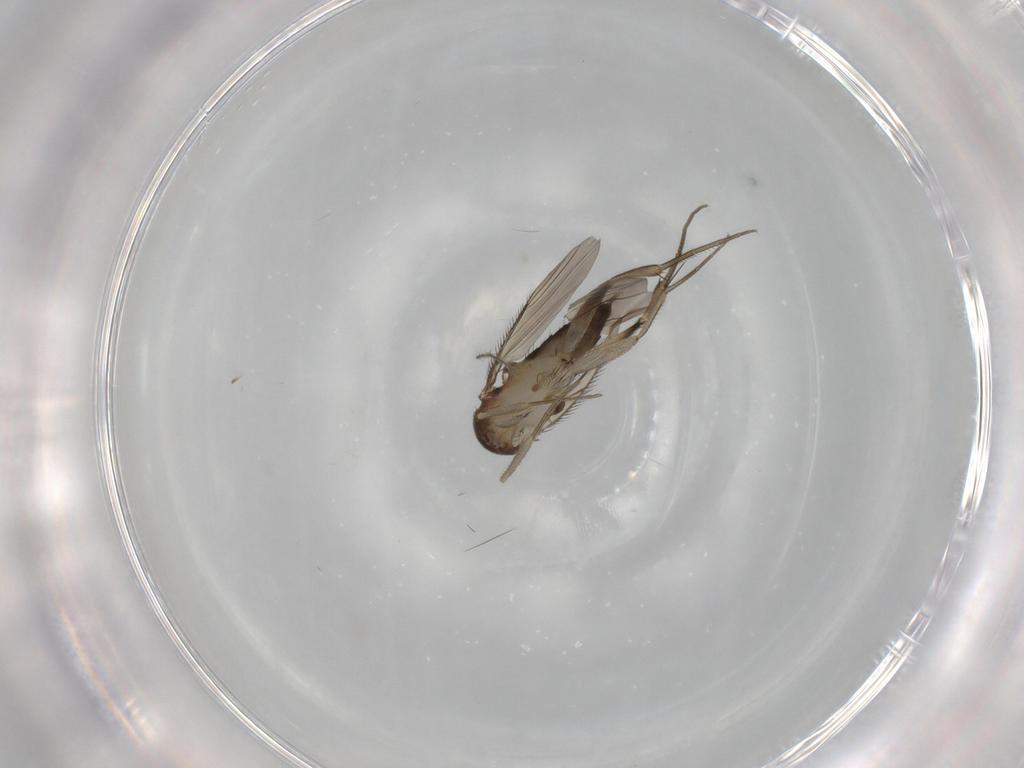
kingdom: Animalia
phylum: Arthropoda
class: Insecta
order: Diptera
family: Phoridae
